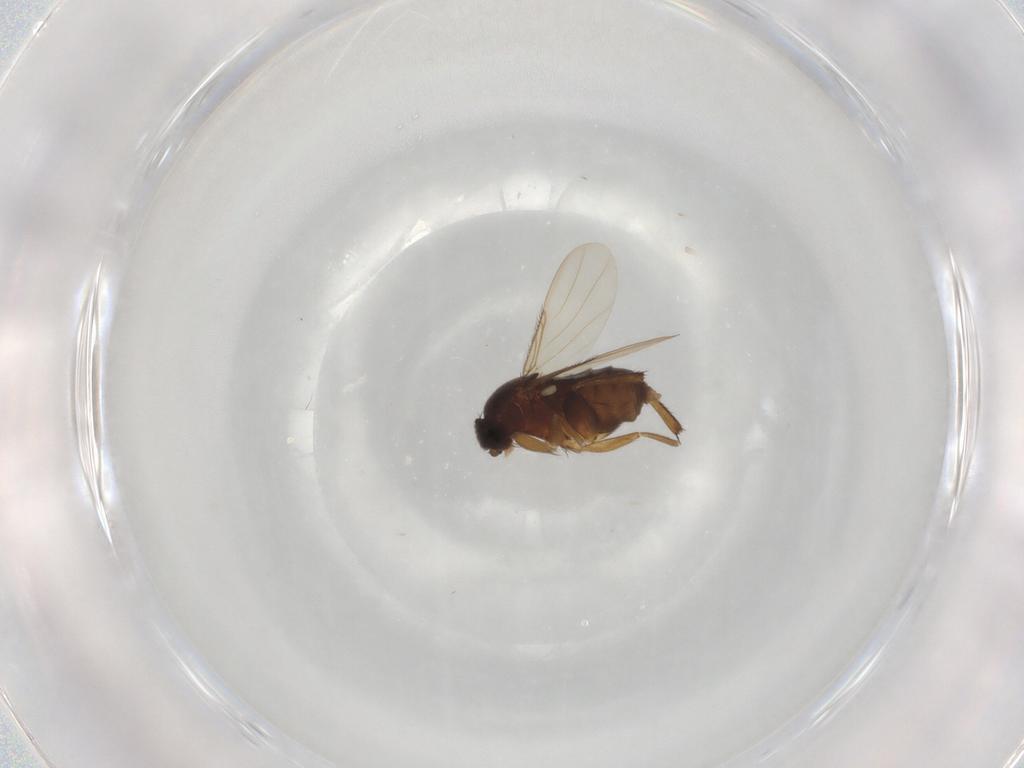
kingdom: Animalia
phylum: Arthropoda
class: Insecta
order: Diptera
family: Phoridae
